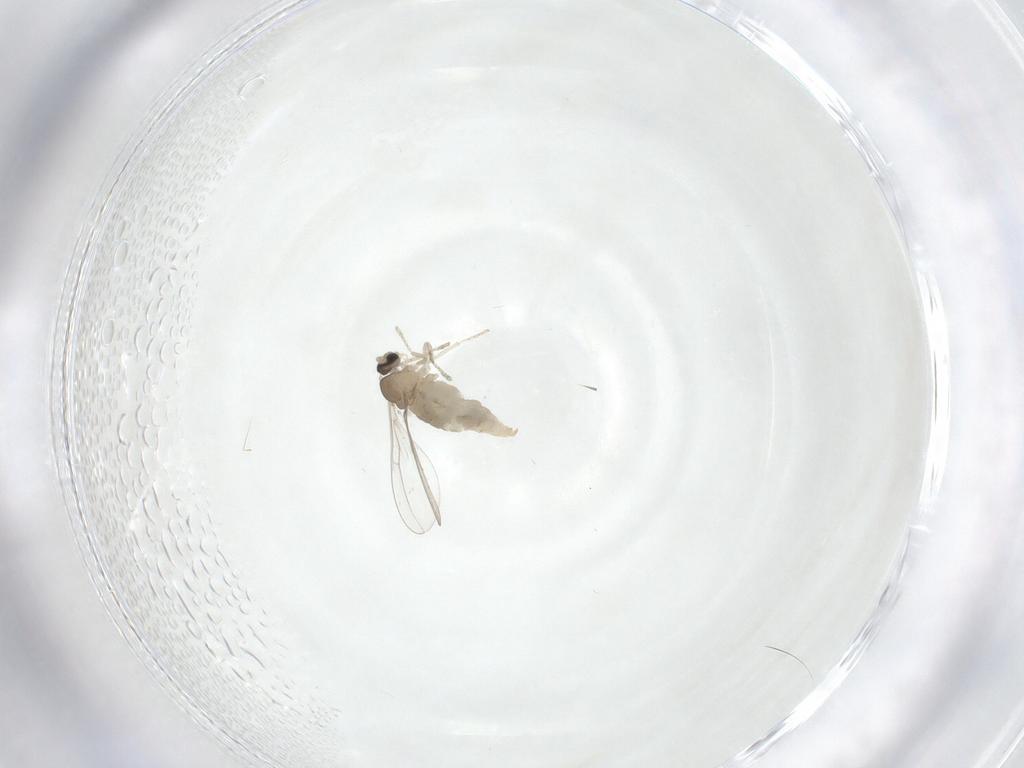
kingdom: Animalia
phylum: Arthropoda
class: Insecta
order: Diptera
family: Cecidomyiidae
